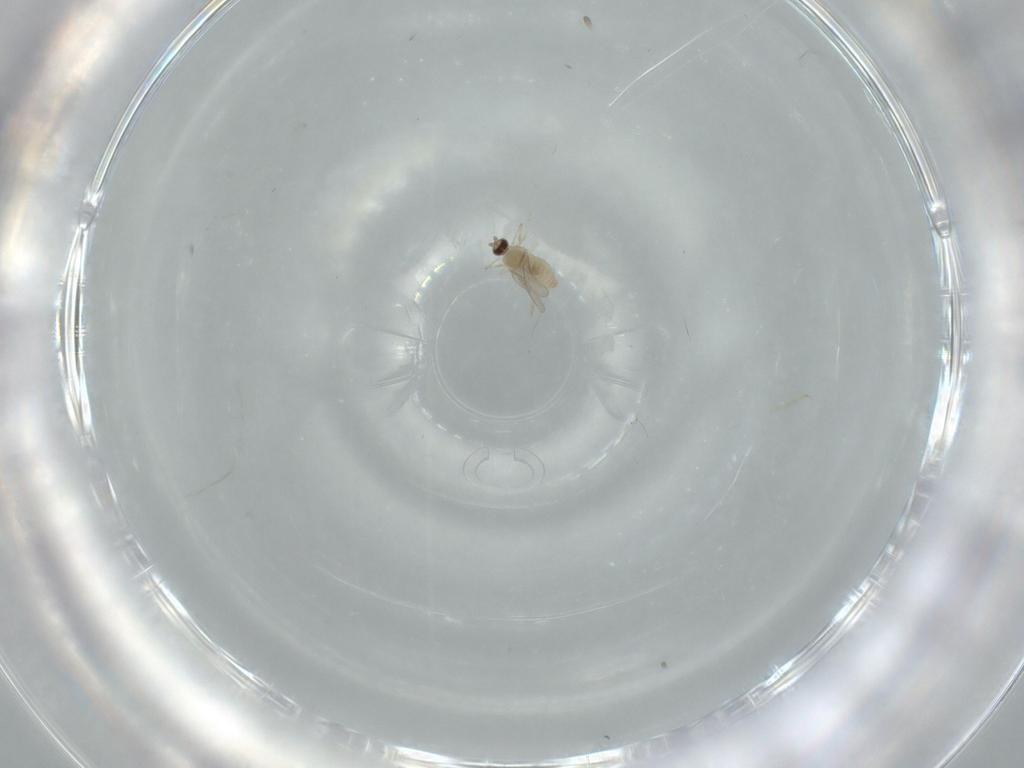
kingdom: Animalia
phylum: Arthropoda
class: Insecta
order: Diptera
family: Cecidomyiidae
